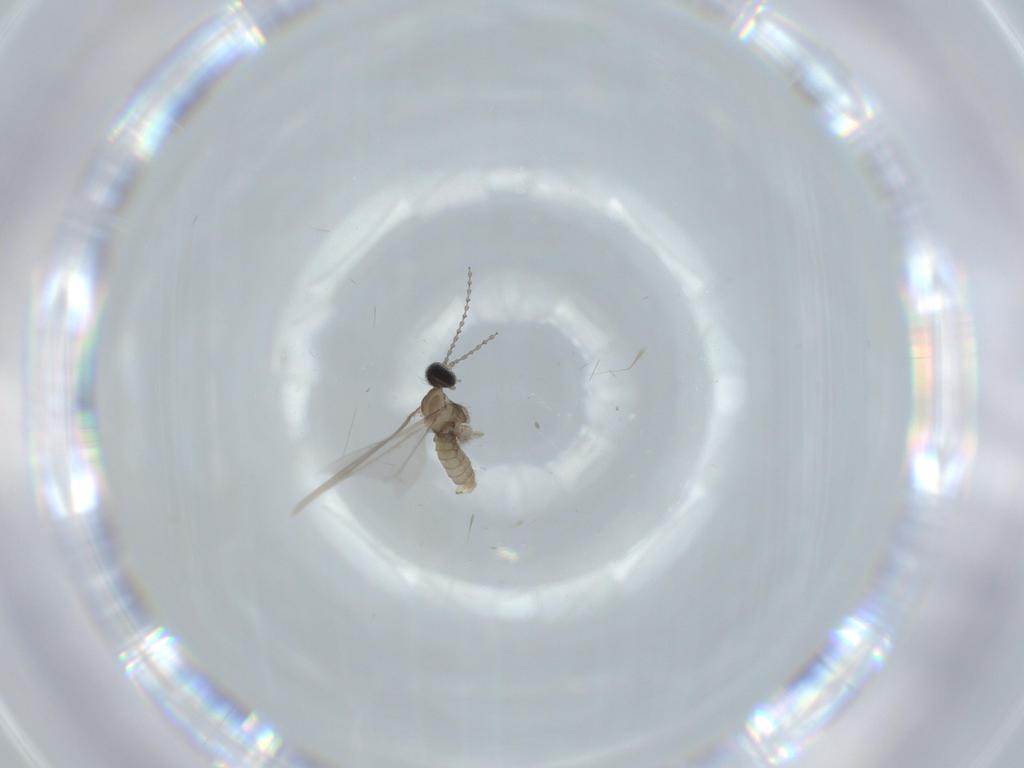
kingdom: Animalia
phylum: Arthropoda
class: Insecta
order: Diptera
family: Cecidomyiidae
